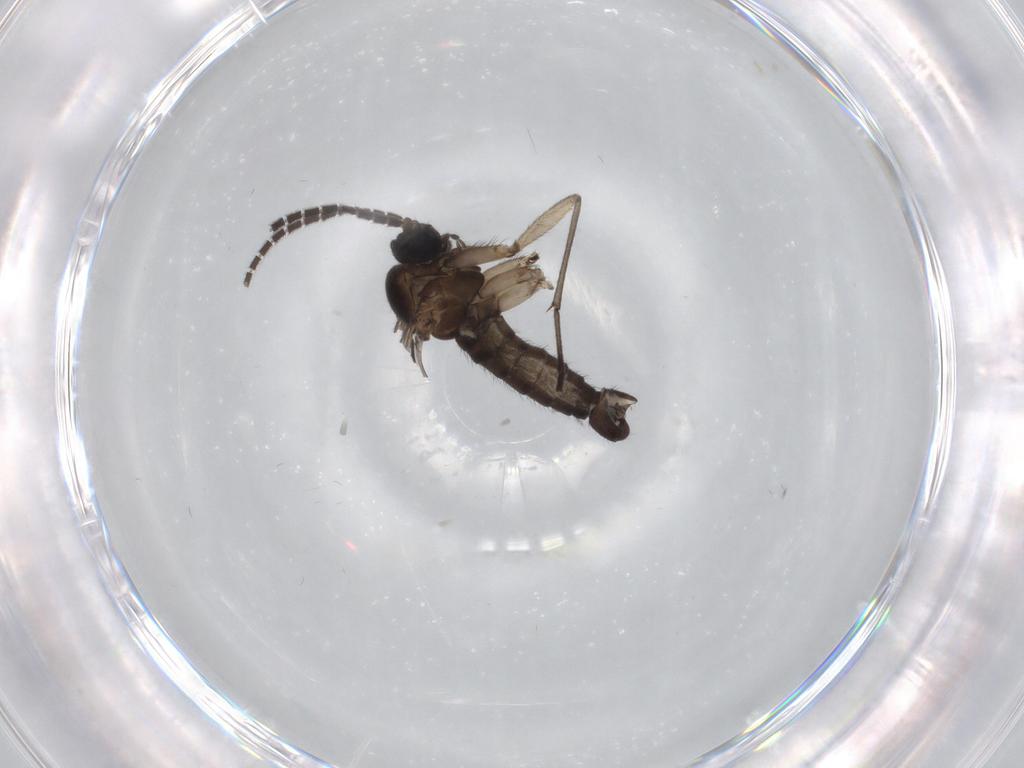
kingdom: Animalia
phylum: Arthropoda
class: Insecta
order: Diptera
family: Sciaridae
